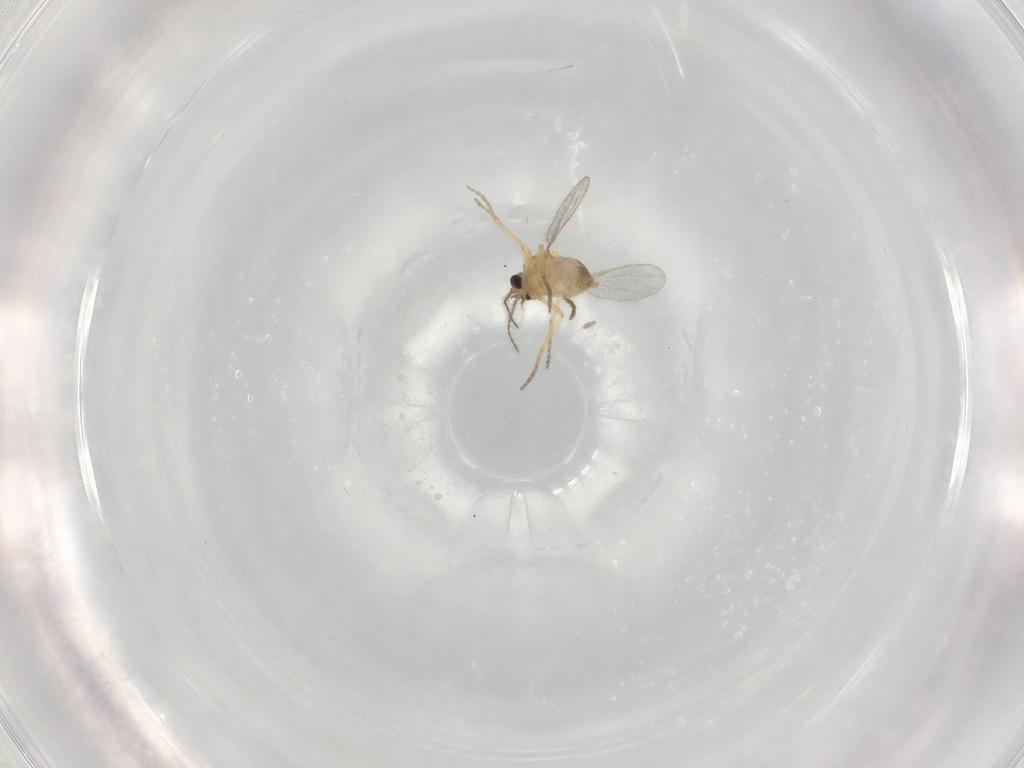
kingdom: Animalia
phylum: Arthropoda
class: Insecta
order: Diptera
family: Ceratopogonidae
